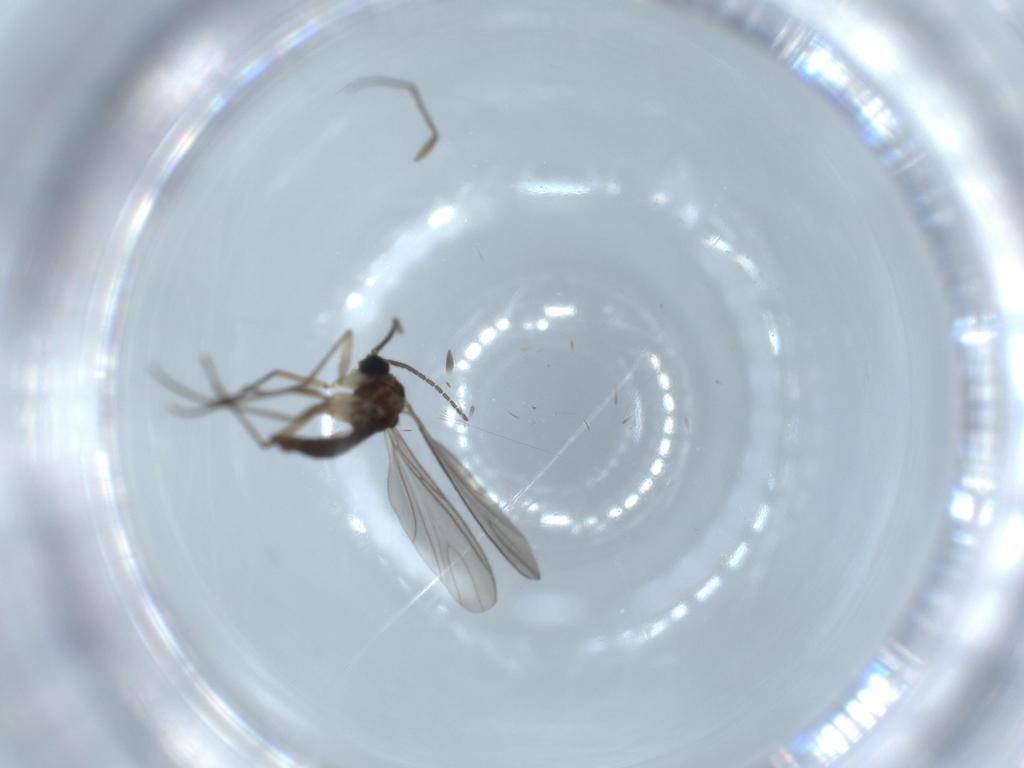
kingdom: Animalia
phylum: Arthropoda
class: Insecta
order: Diptera
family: Sciaridae
